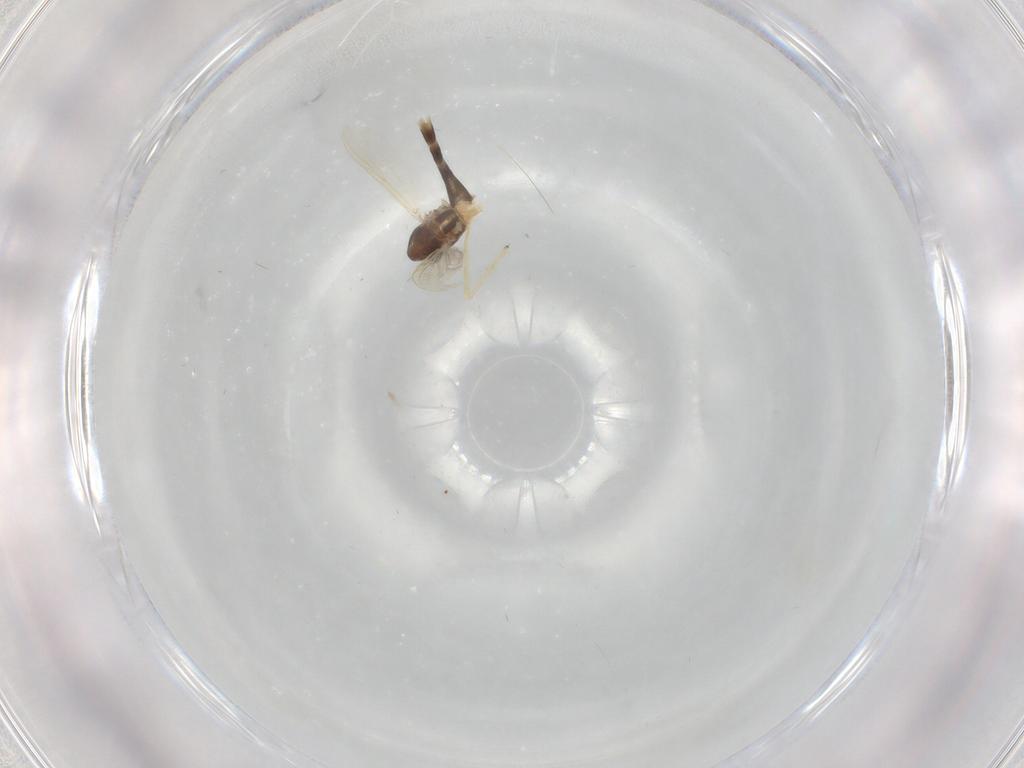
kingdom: Animalia
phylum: Arthropoda
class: Insecta
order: Diptera
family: Chironomidae
